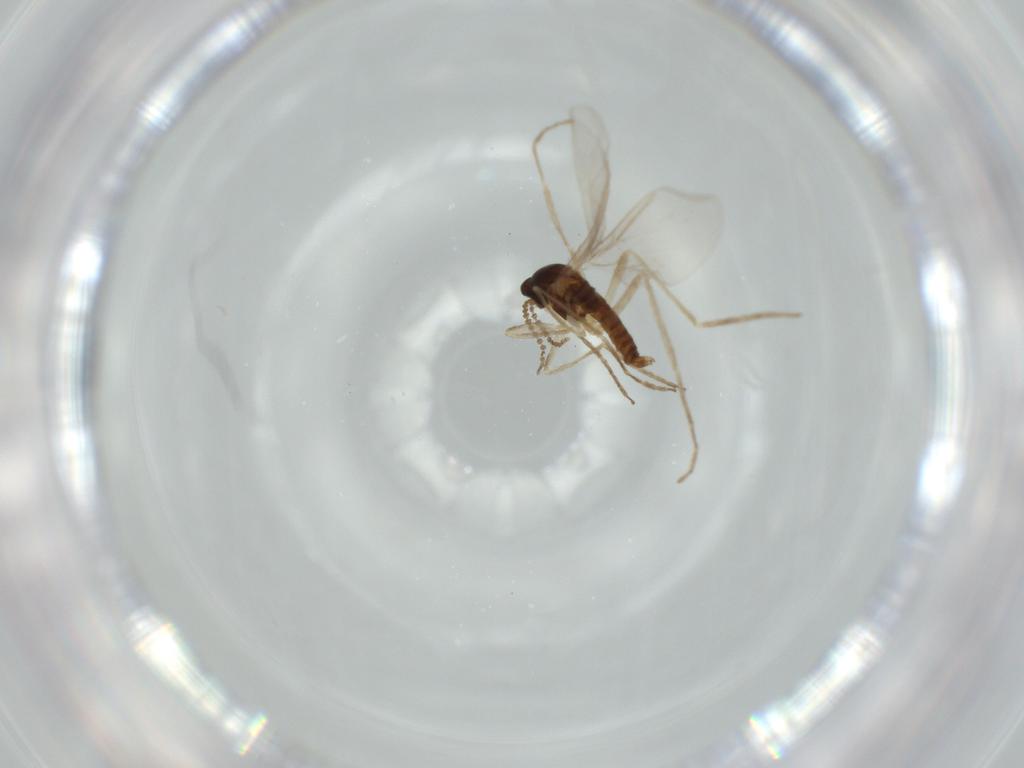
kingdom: Animalia
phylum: Arthropoda
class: Insecta
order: Diptera
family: Cecidomyiidae
